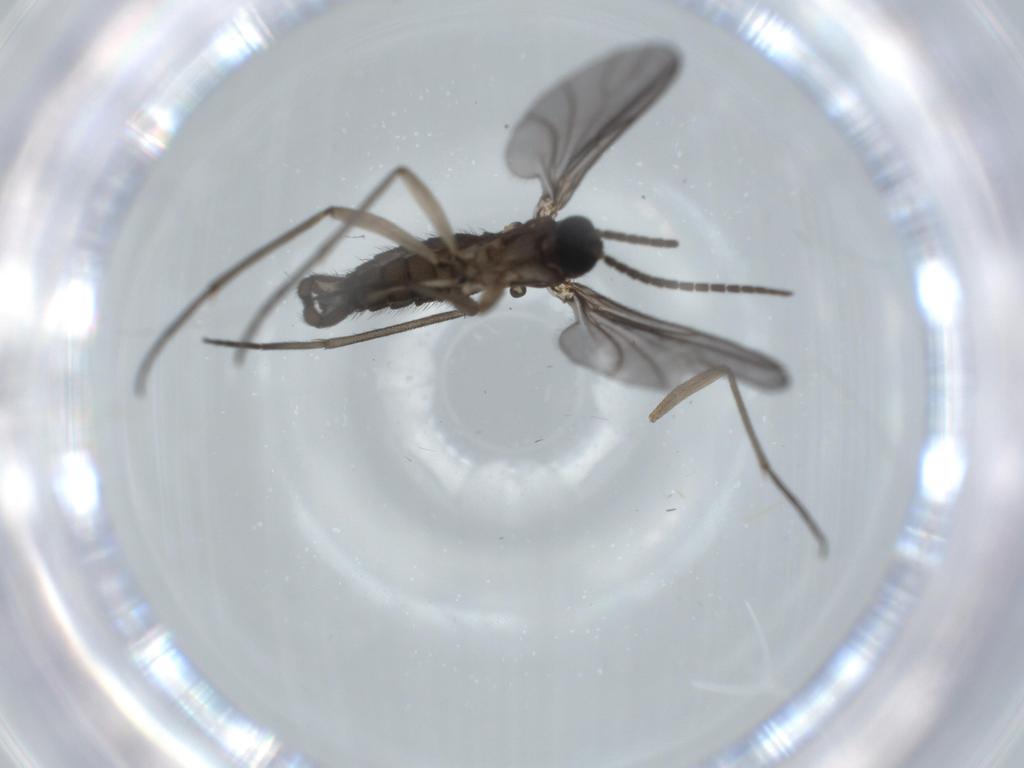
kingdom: Animalia
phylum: Arthropoda
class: Insecta
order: Diptera
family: Sciaridae
